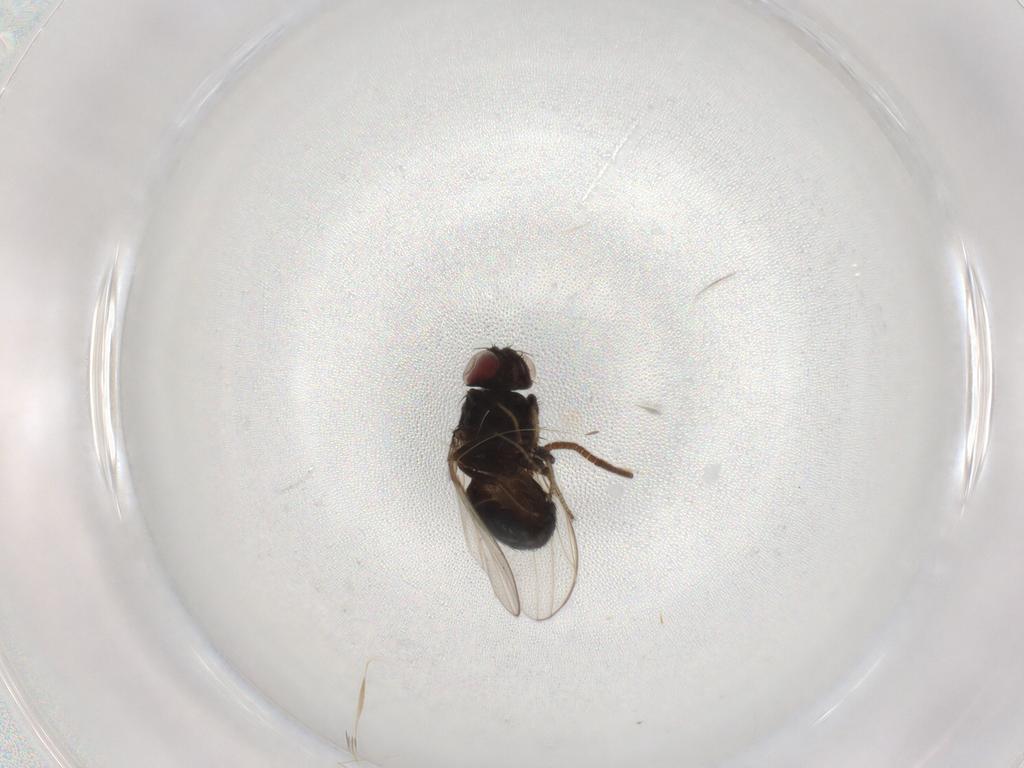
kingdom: Animalia
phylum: Arthropoda
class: Insecta
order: Diptera
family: Drosophilidae
